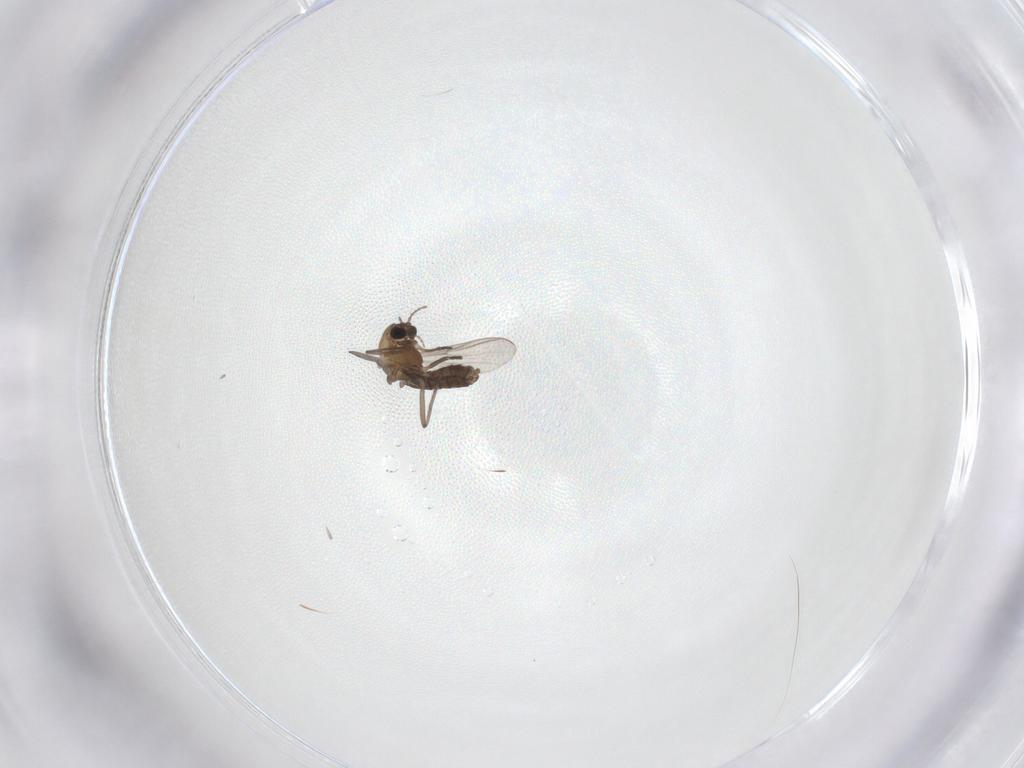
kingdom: Animalia
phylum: Arthropoda
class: Insecta
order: Diptera
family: Chironomidae
